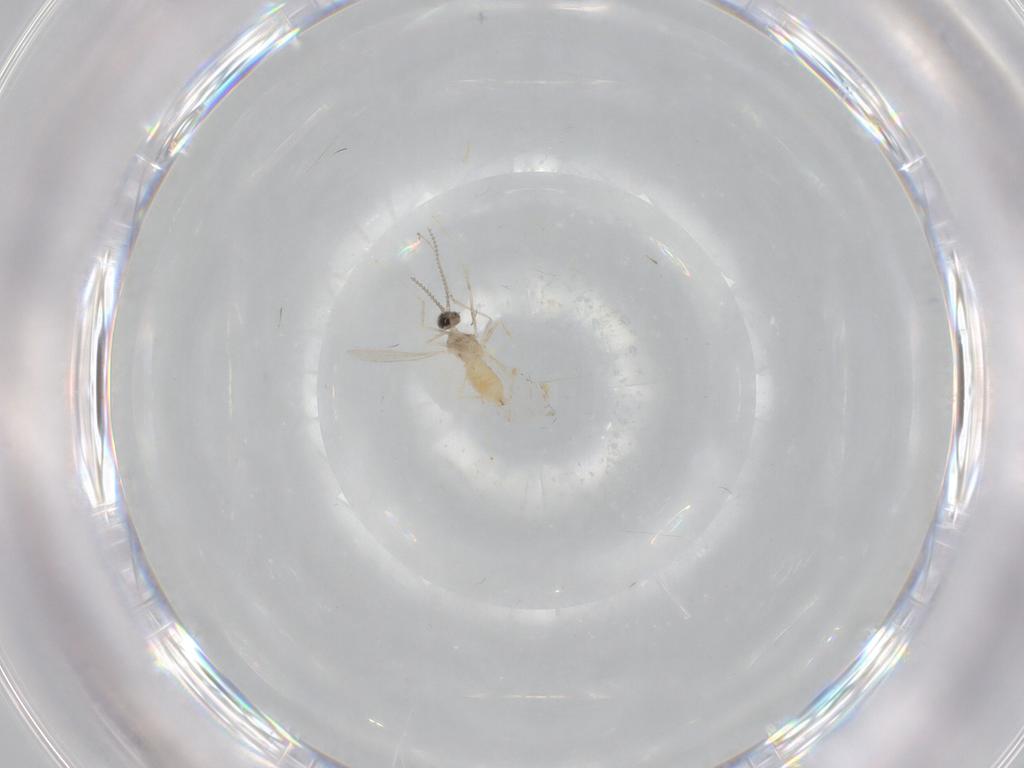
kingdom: Animalia
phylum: Arthropoda
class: Insecta
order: Diptera
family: Cecidomyiidae
